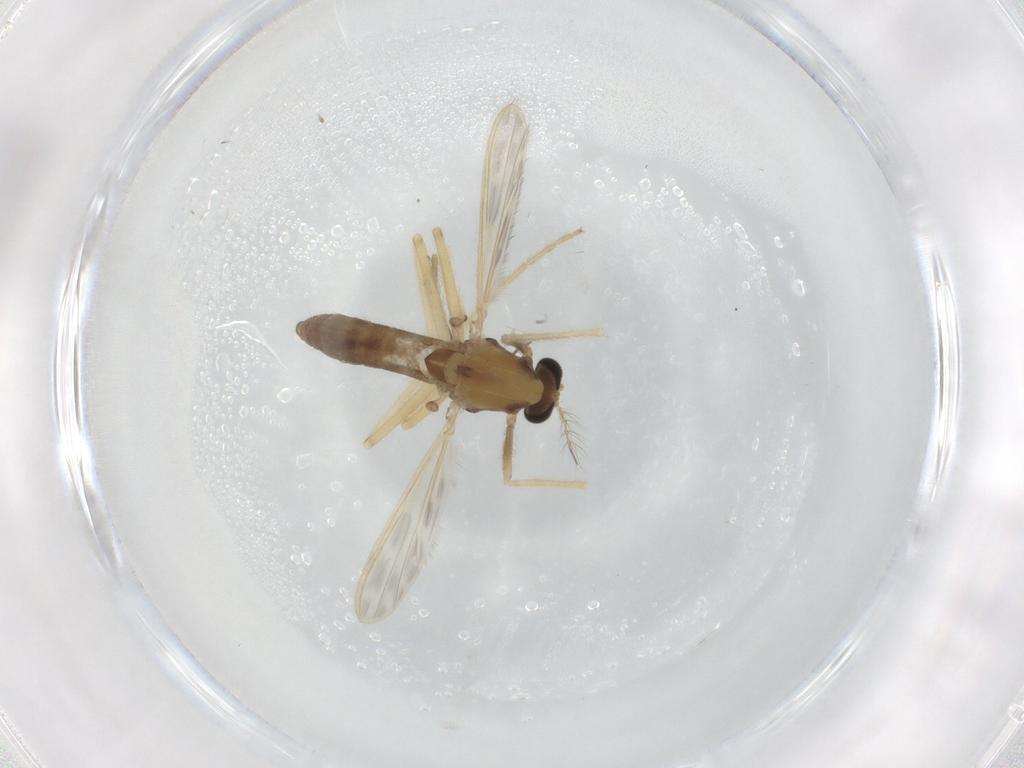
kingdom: Animalia
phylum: Arthropoda
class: Insecta
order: Diptera
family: Chironomidae
